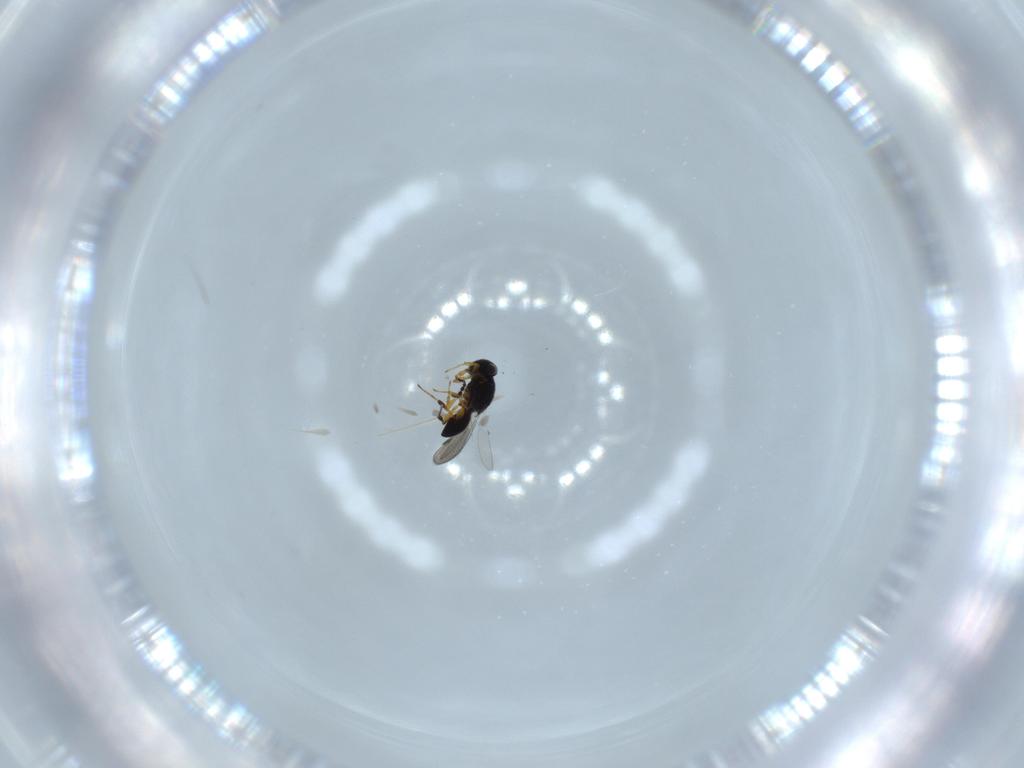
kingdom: Animalia
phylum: Arthropoda
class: Insecta
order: Hymenoptera
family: Platygastridae
